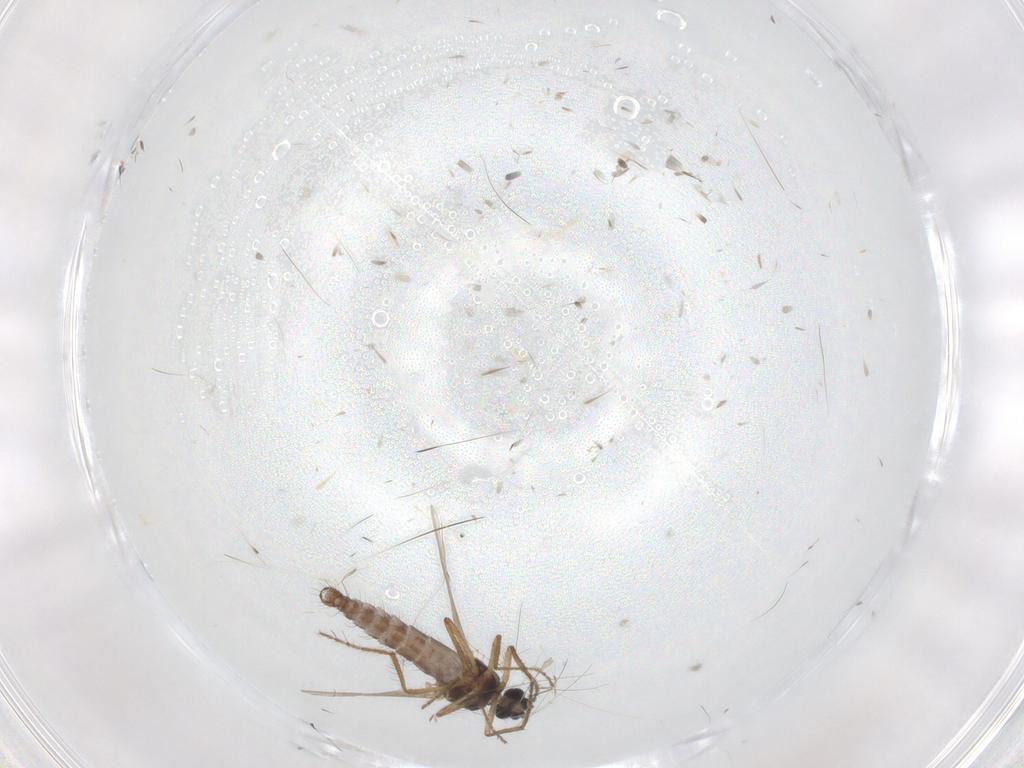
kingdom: Animalia
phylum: Arthropoda
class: Insecta
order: Diptera
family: Ceratopogonidae
